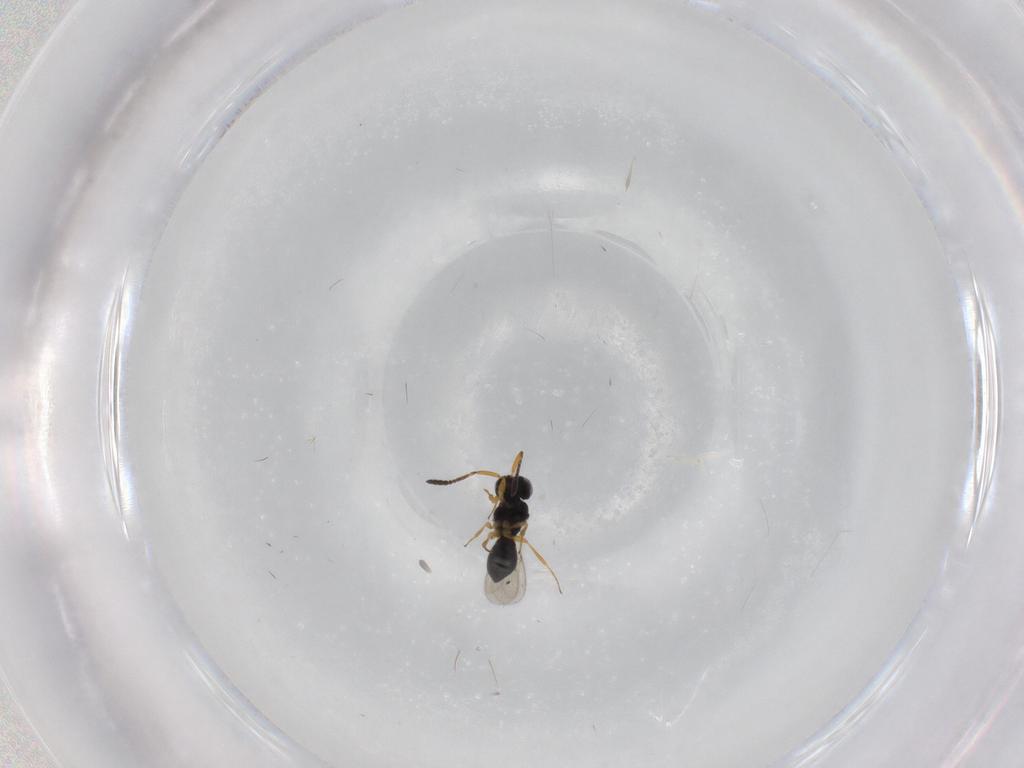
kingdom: Animalia
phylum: Arthropoda
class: Insecta
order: Hymenoptera
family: Scelionidae
